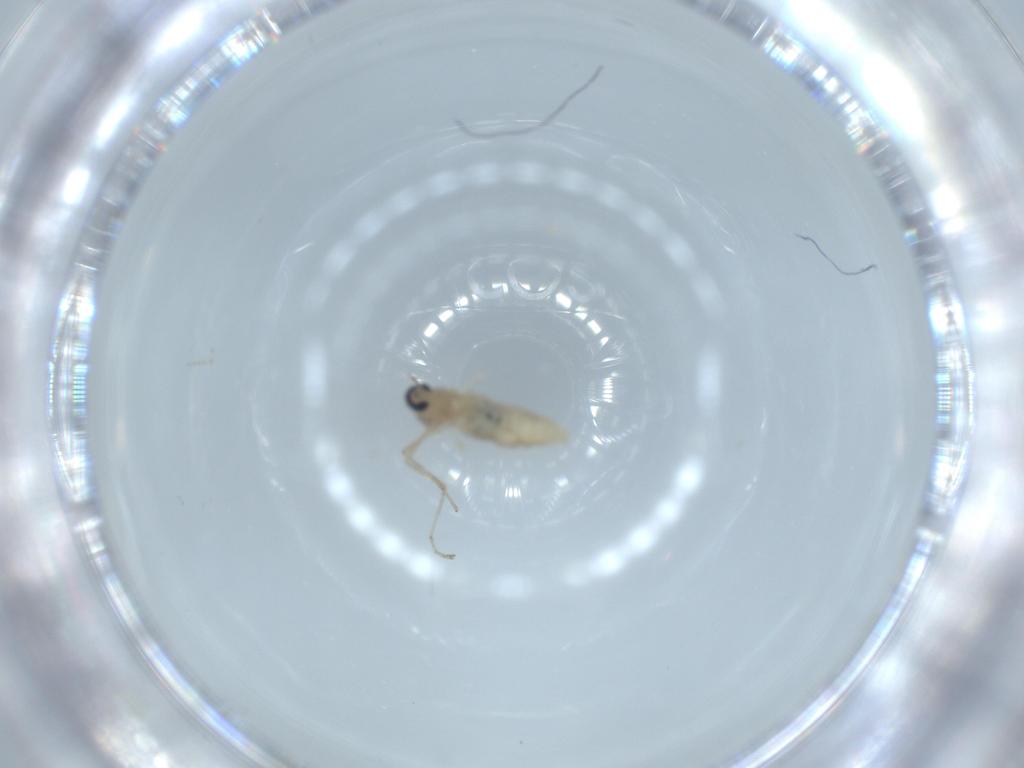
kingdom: Animalia
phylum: Arthropoda
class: Insecta
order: Diptera
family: Cecidomyiidae
